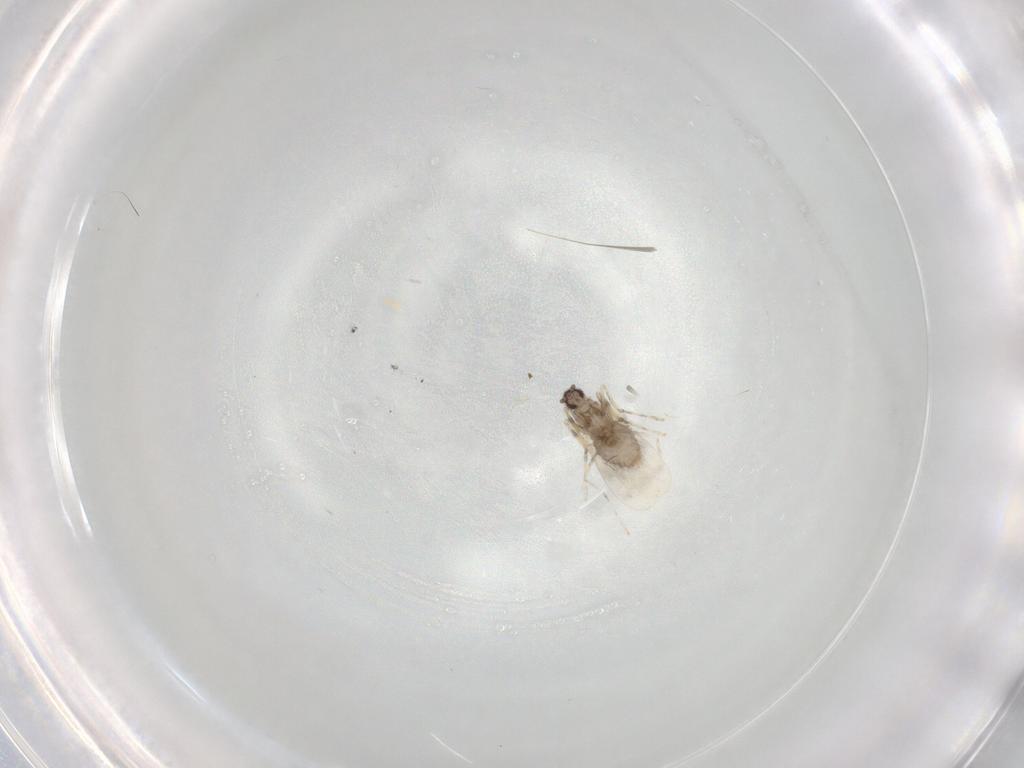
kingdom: Animalia
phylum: Arthropoda
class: Insecta
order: Diptera
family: Cecidomyiidae
